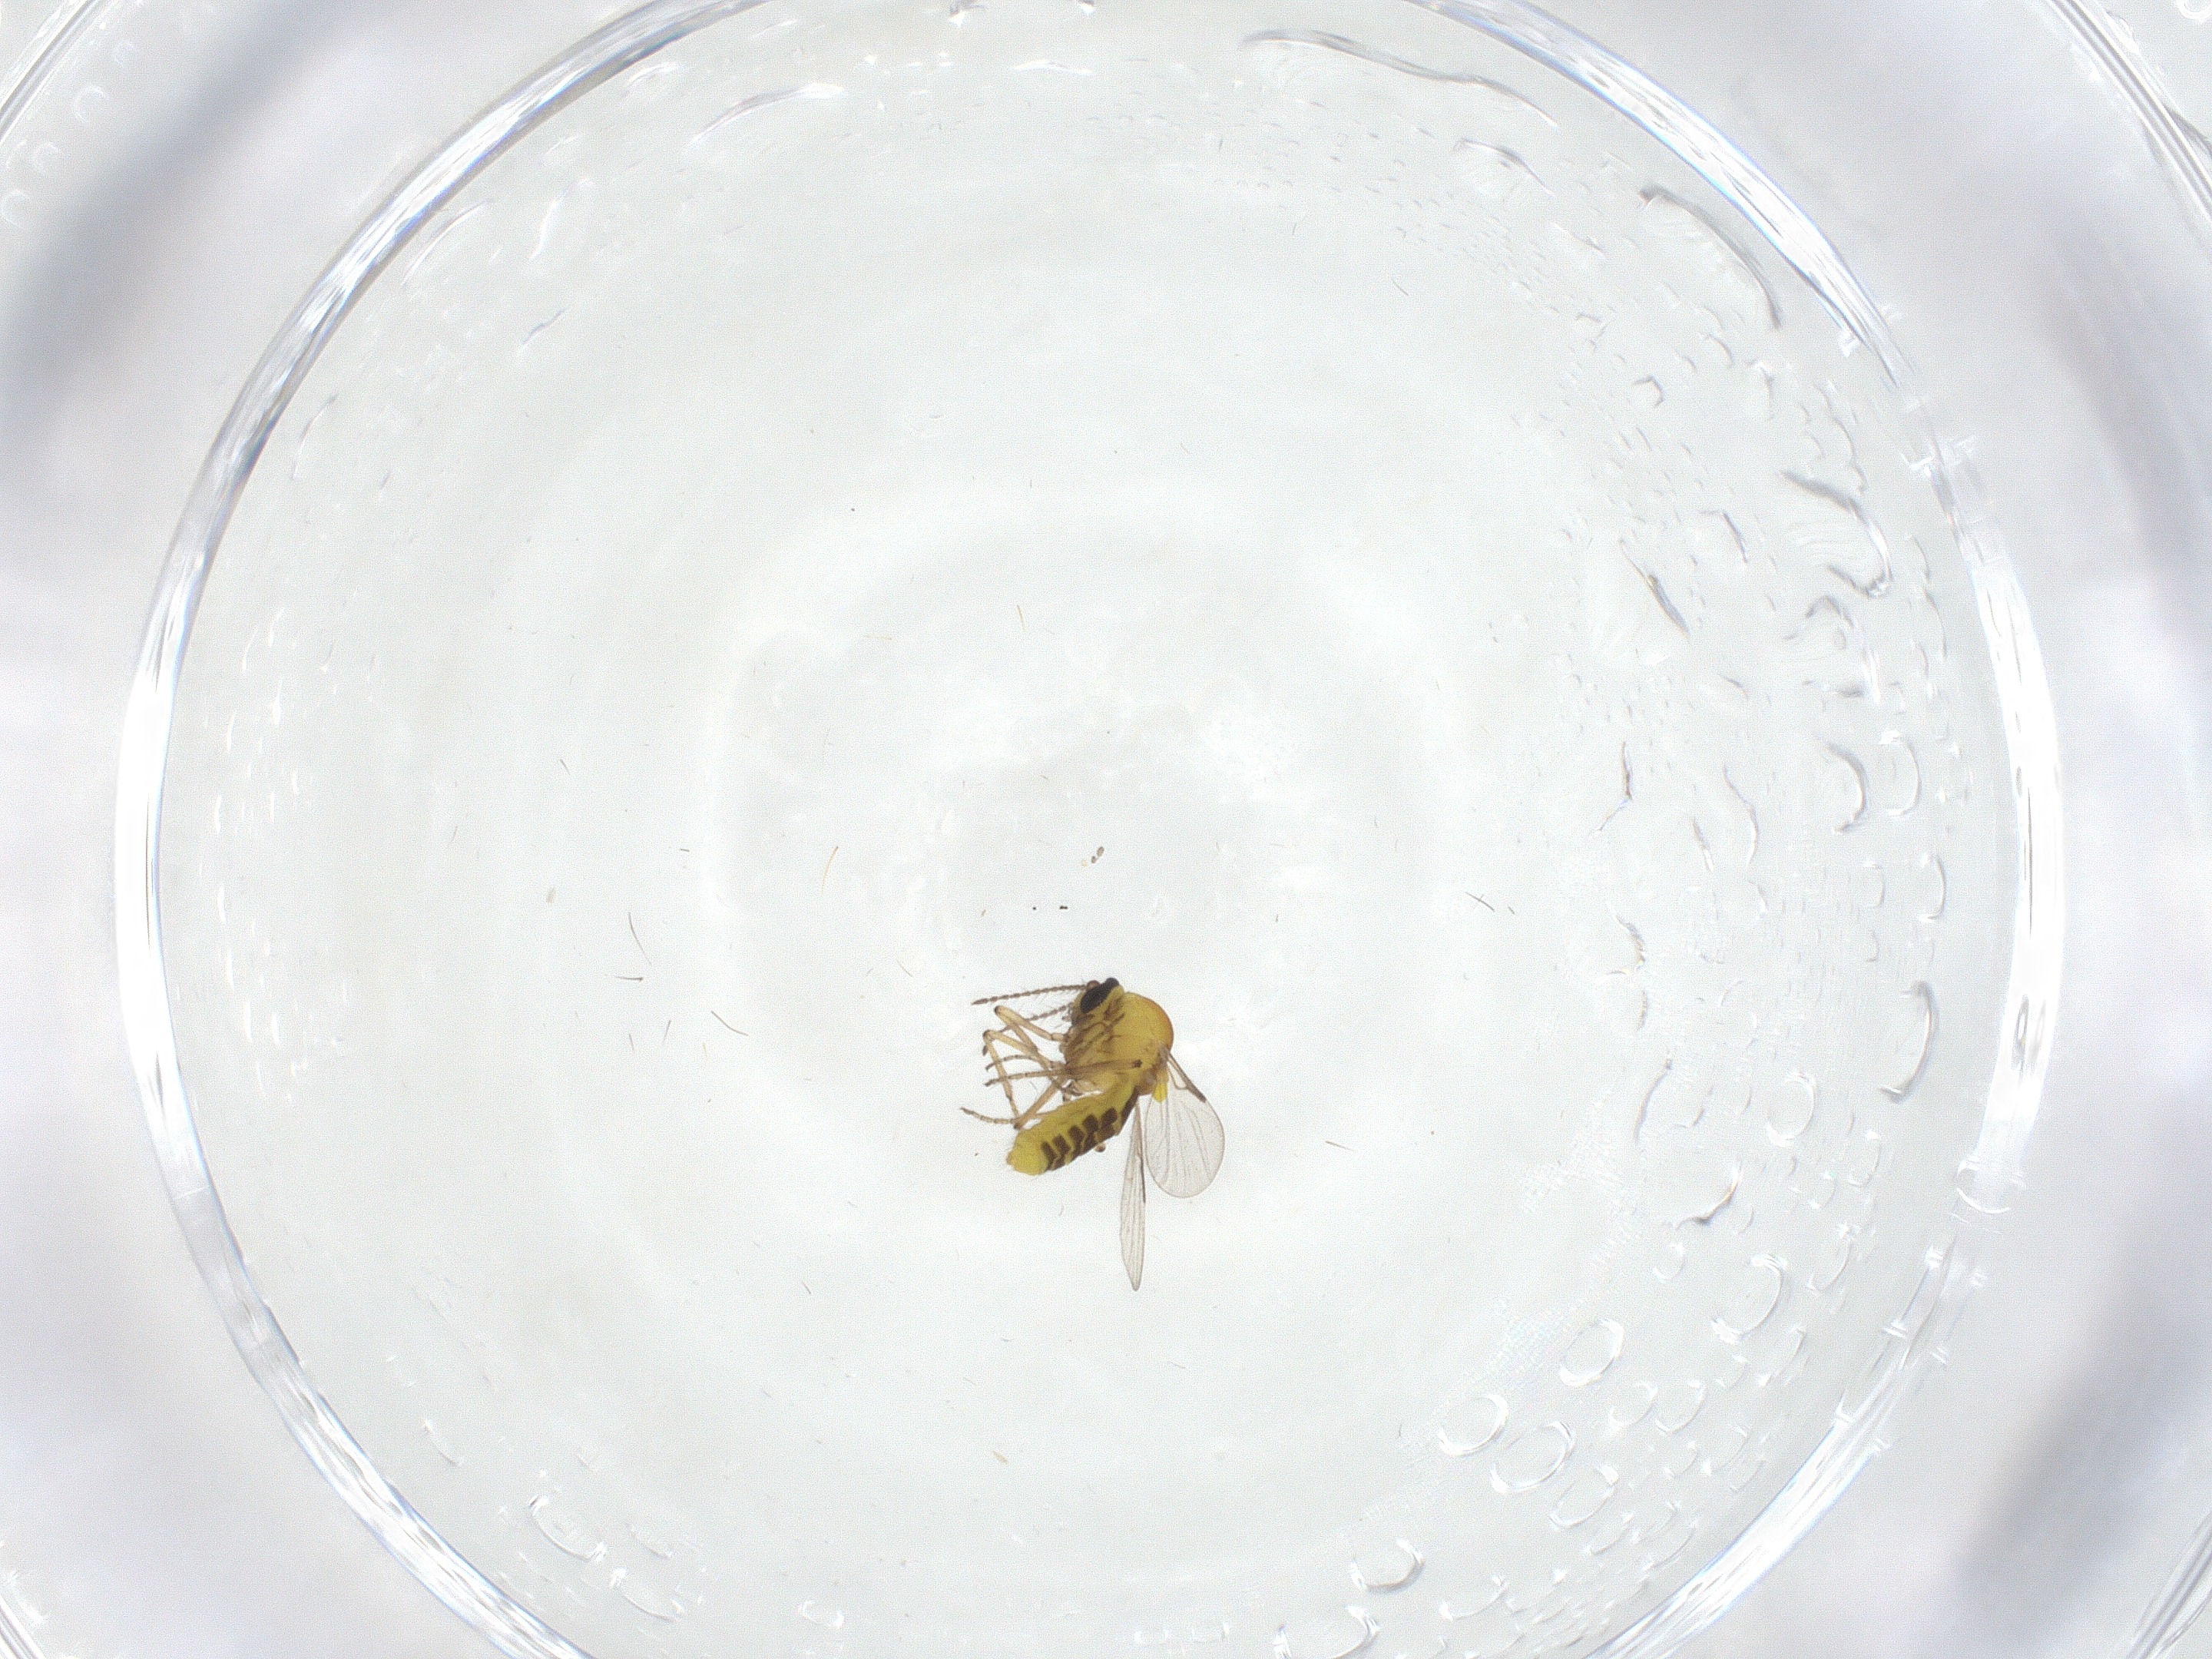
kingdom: Animalia
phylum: Arthropoda
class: Insecta
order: Diptera
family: Ceratopogonidae
